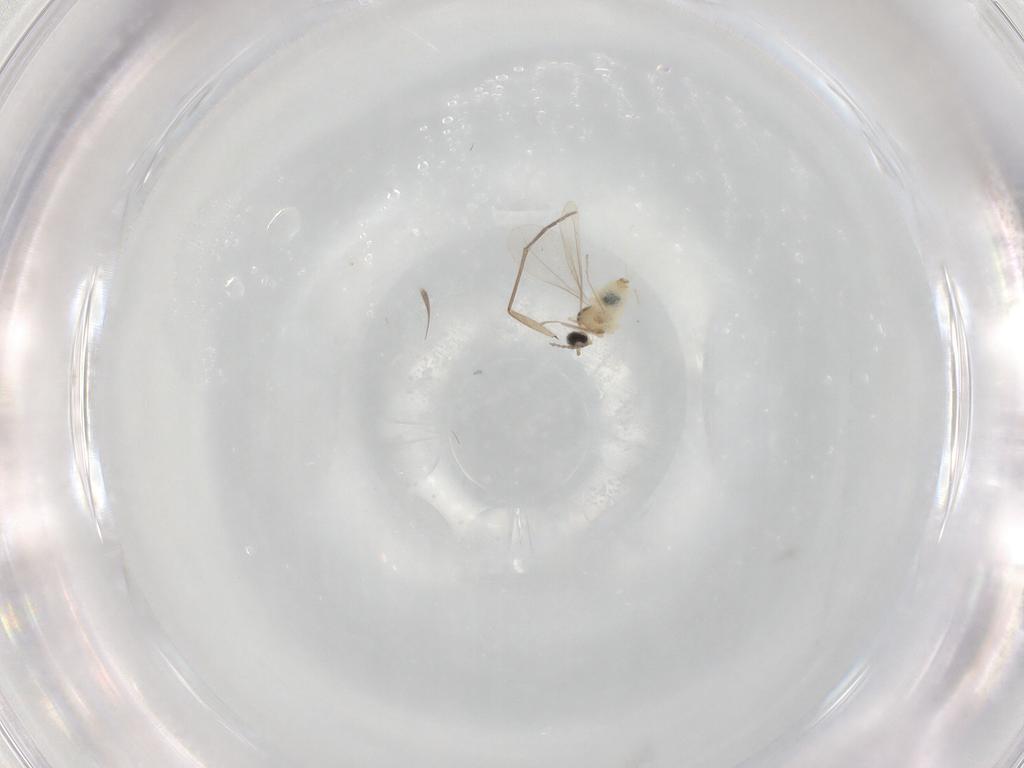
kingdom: Animalia
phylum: Arthropoda
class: Insecta
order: Diptera
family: Cecidomyiidae
